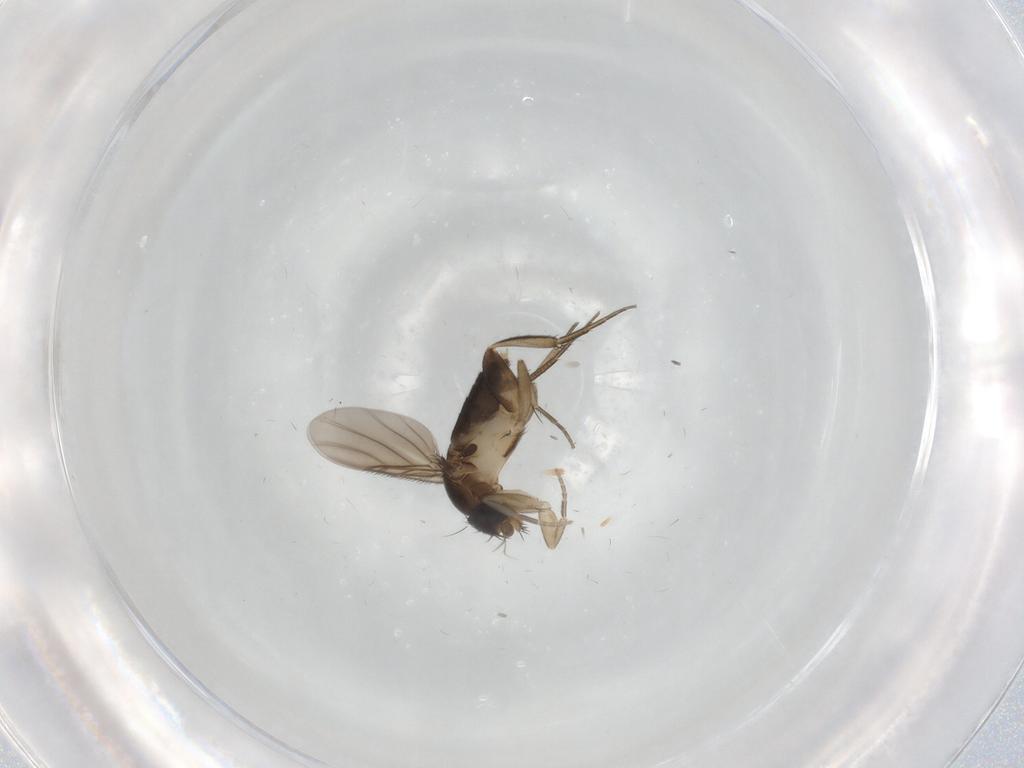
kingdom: Animalia
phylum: Arthropoda
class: Insecta
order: Diptera
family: Phoridae
